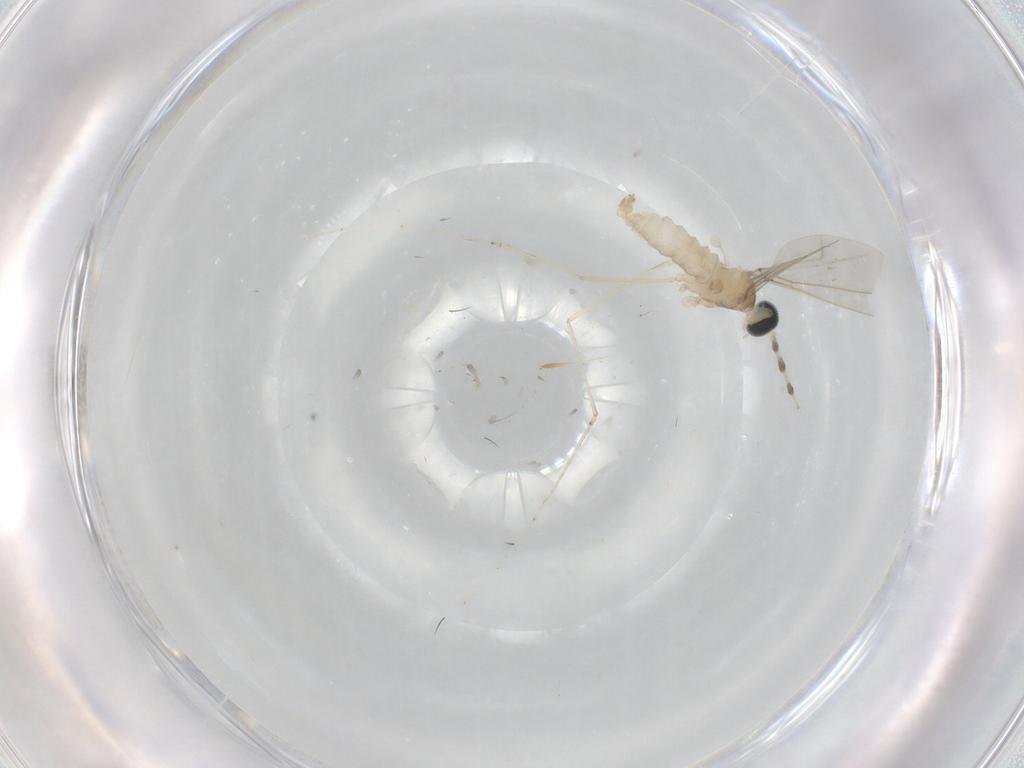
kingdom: Animalia
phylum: Arthropoda
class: Insecta
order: Diptera
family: Cecidomyiidae
